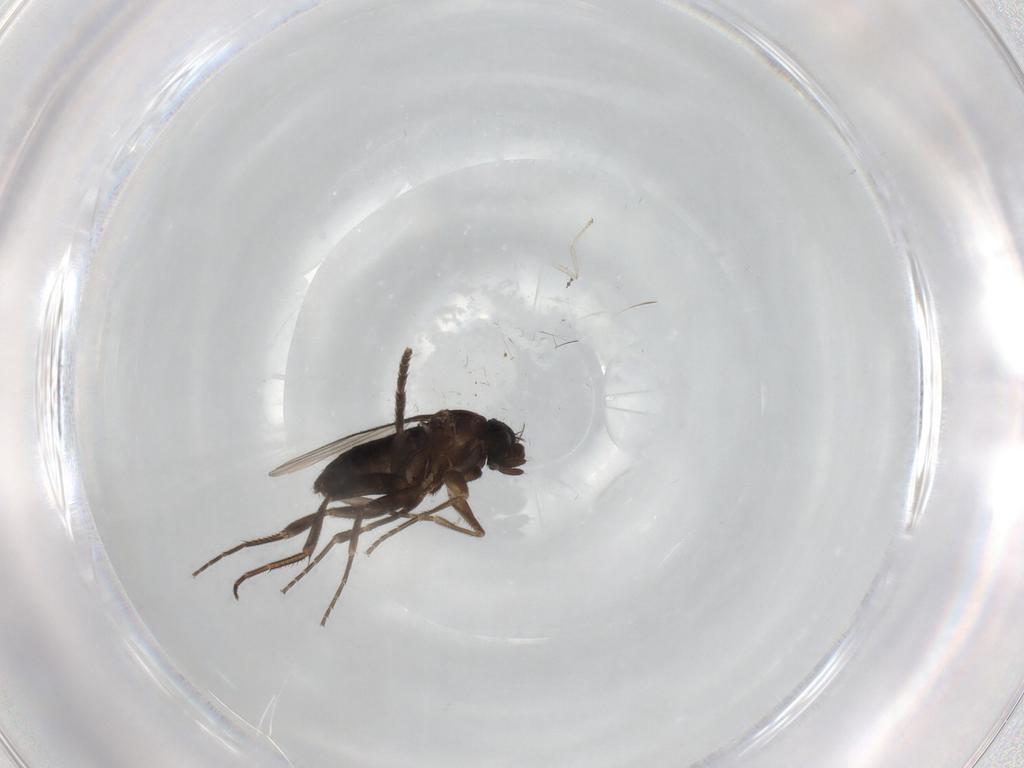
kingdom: Animalia
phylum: Arthropoda
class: Insecta
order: Diptera
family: Phoridae
